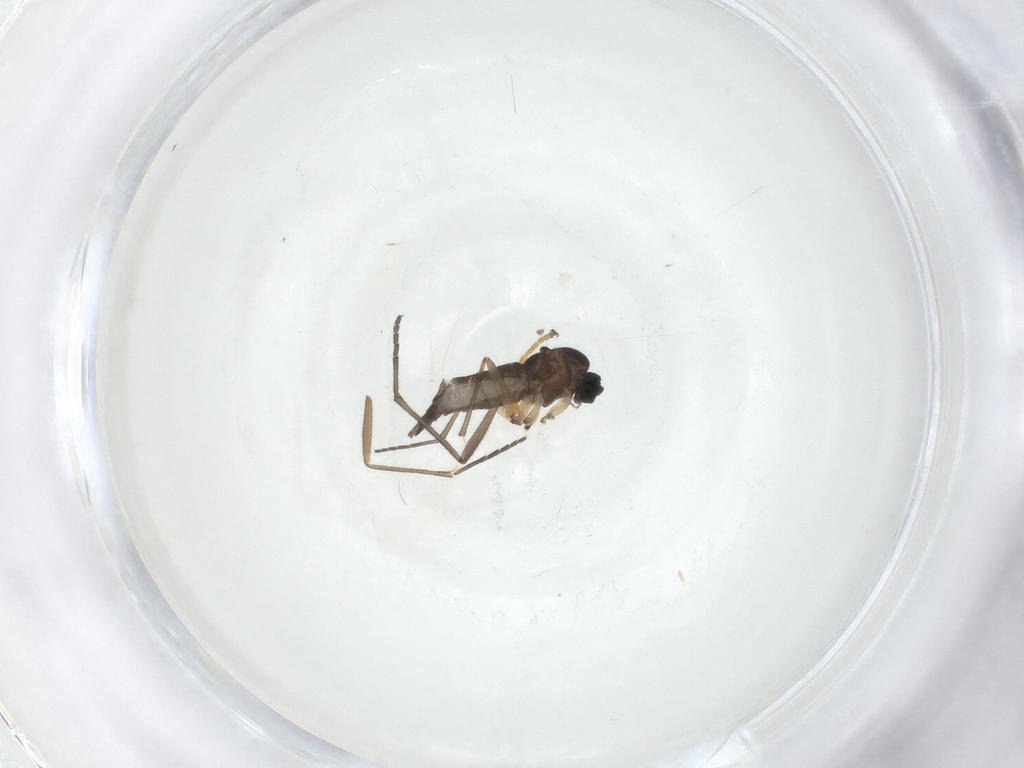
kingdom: Animalia
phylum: Arthropoda
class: Insecta
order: Diptera
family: Sciaridae
